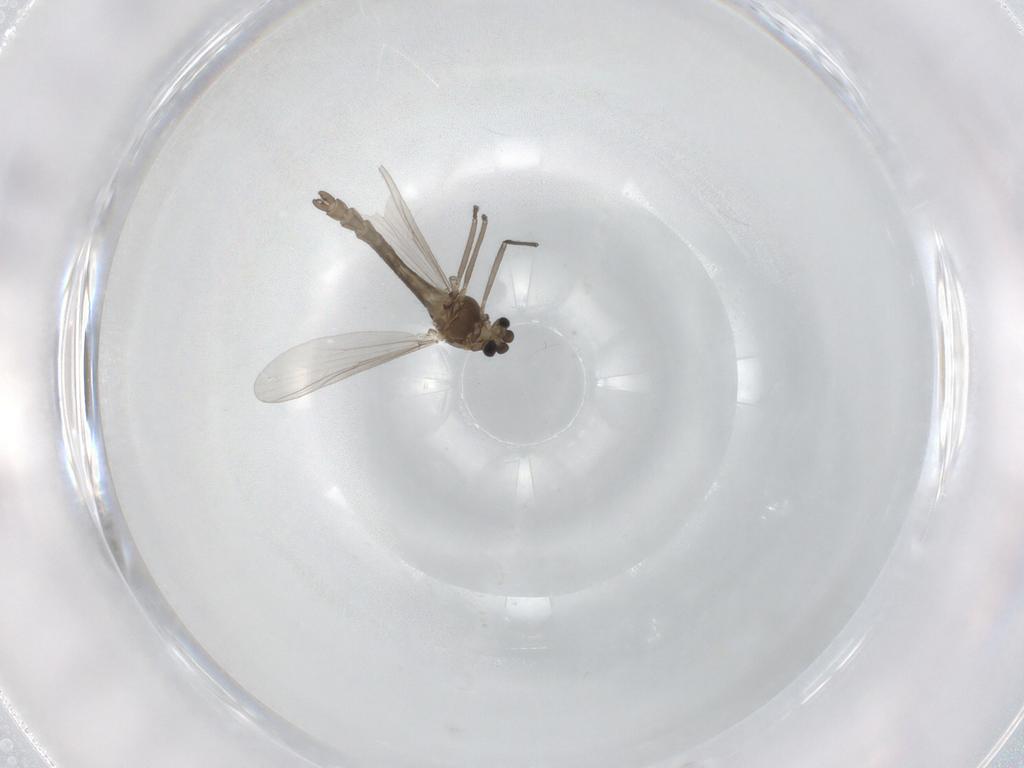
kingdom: Animalia
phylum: Arthropoda
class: Insecta
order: Diptera
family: Chironomidae
